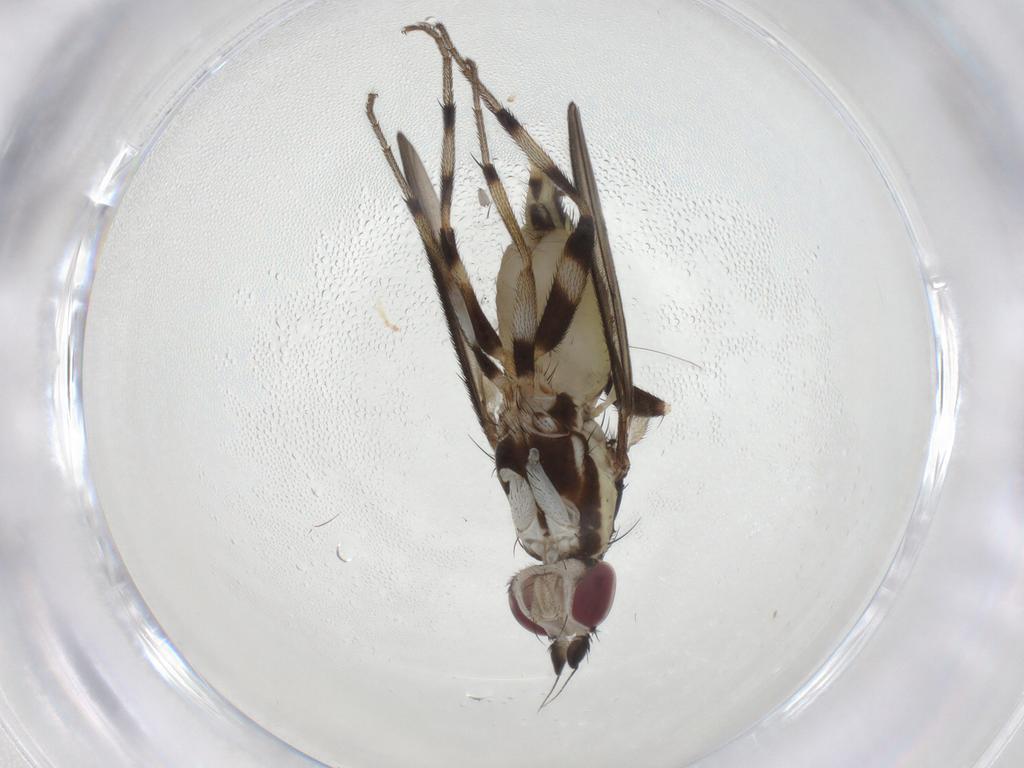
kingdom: Animalia
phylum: Arthropoda
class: Insecta
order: Diptera
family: Pseudopomyzidae
